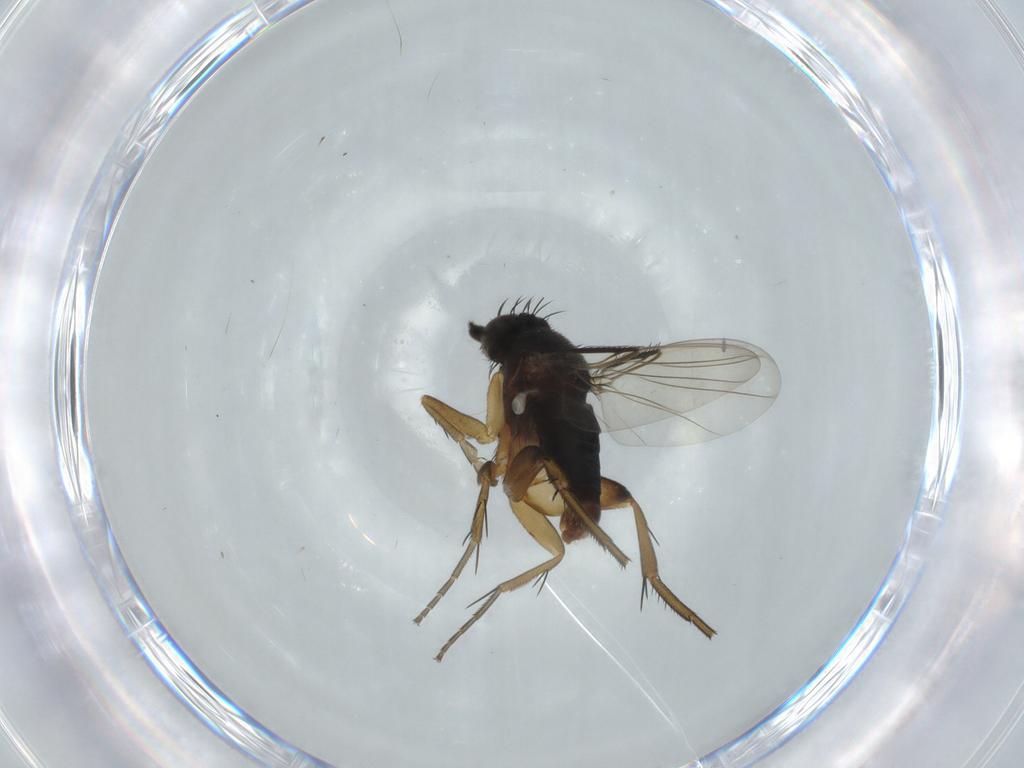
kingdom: Animalia
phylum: Arthropoda
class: Insecta
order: Diptera
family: Phoridae
